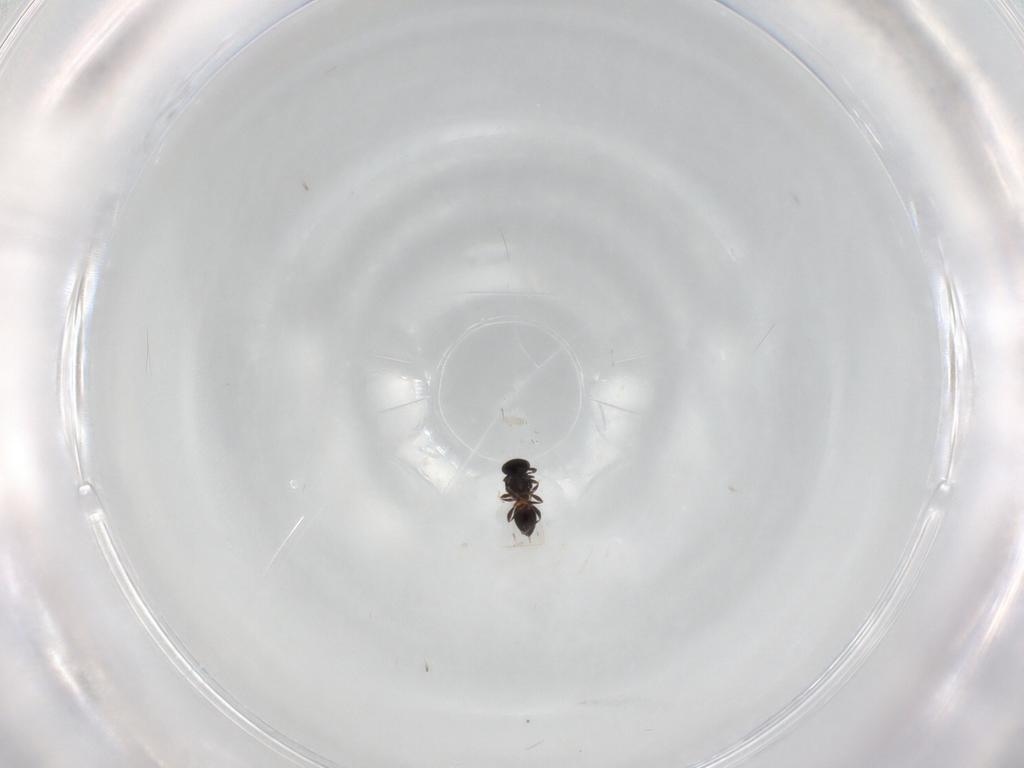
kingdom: Animalia
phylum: Arthropoda
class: Insecta
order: Hymenoptera
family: Platygastridae
